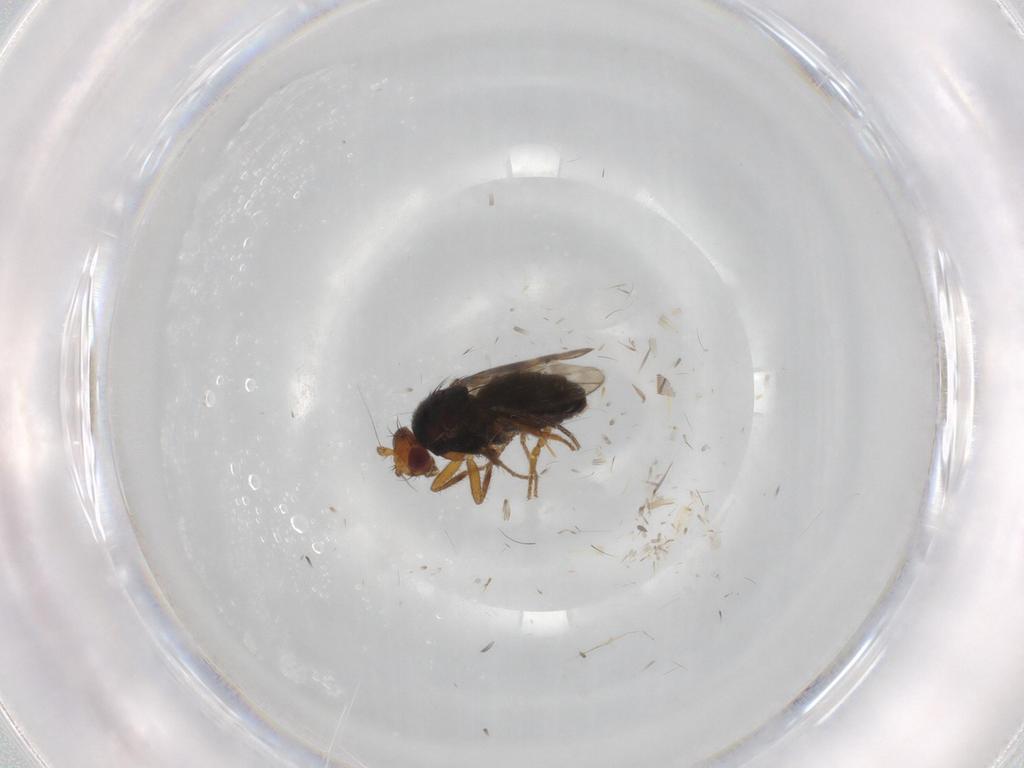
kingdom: Animalia
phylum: Arthropoda
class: Insecta
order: Diptera
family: Sphaeroceridae
